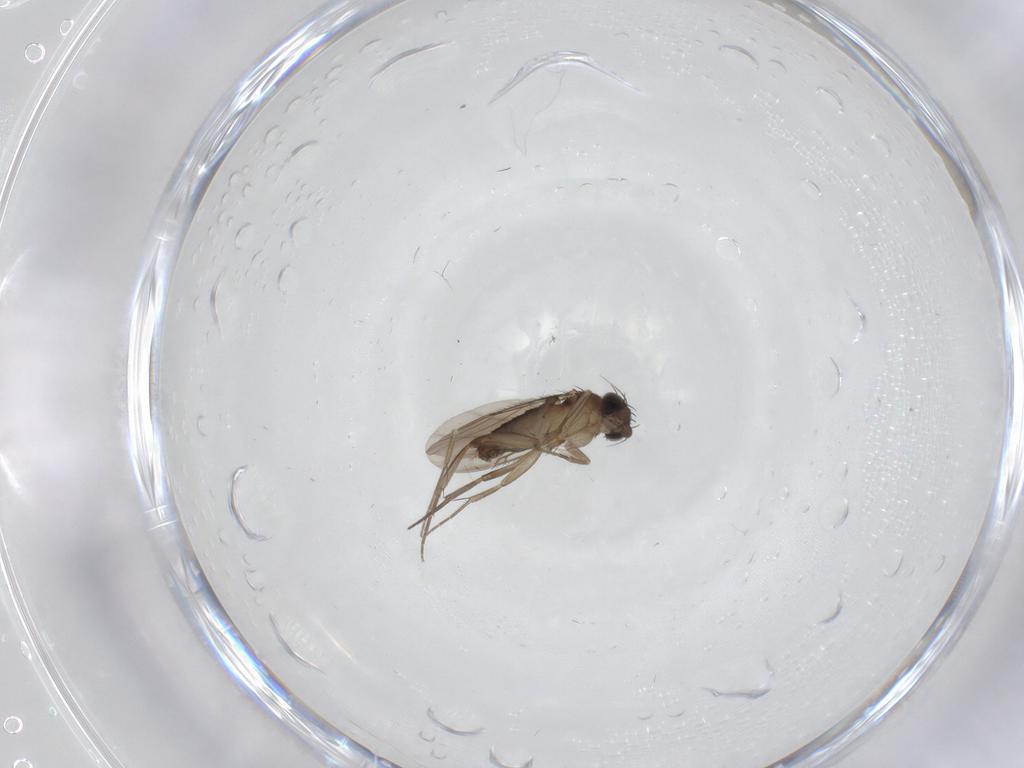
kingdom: Animalia
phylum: Arthropoda
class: Insecta
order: Diptera
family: Phoridae
